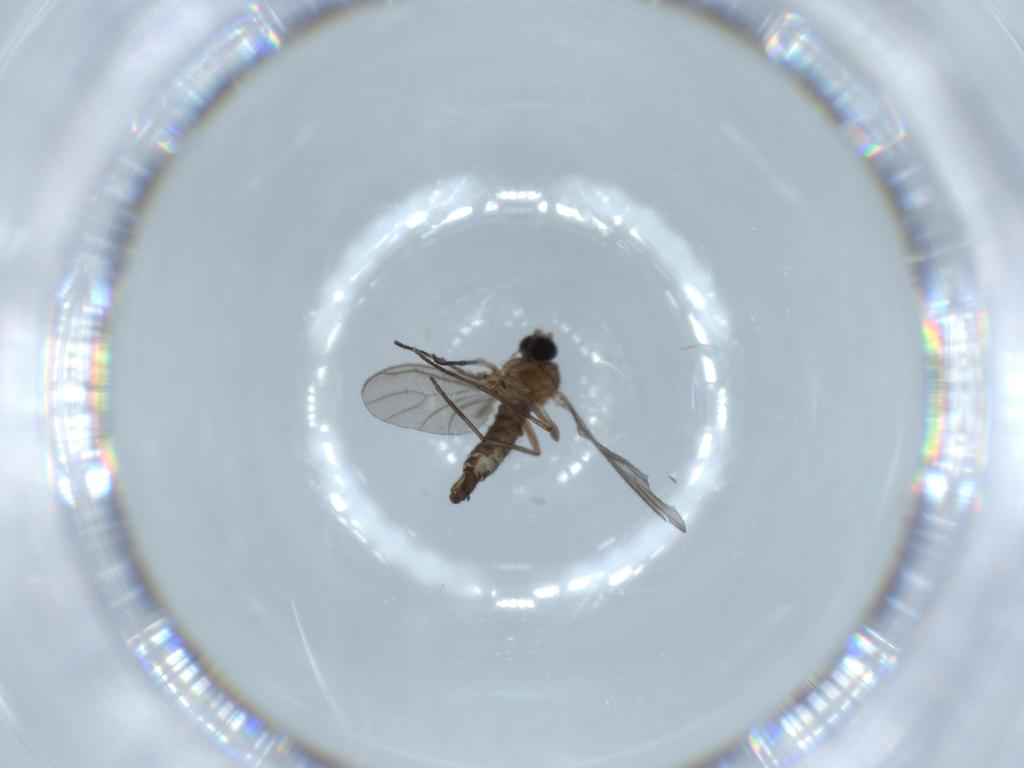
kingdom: Animalia
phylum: Arthropoda
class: Insecta
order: Diptera
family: Sciaridae
